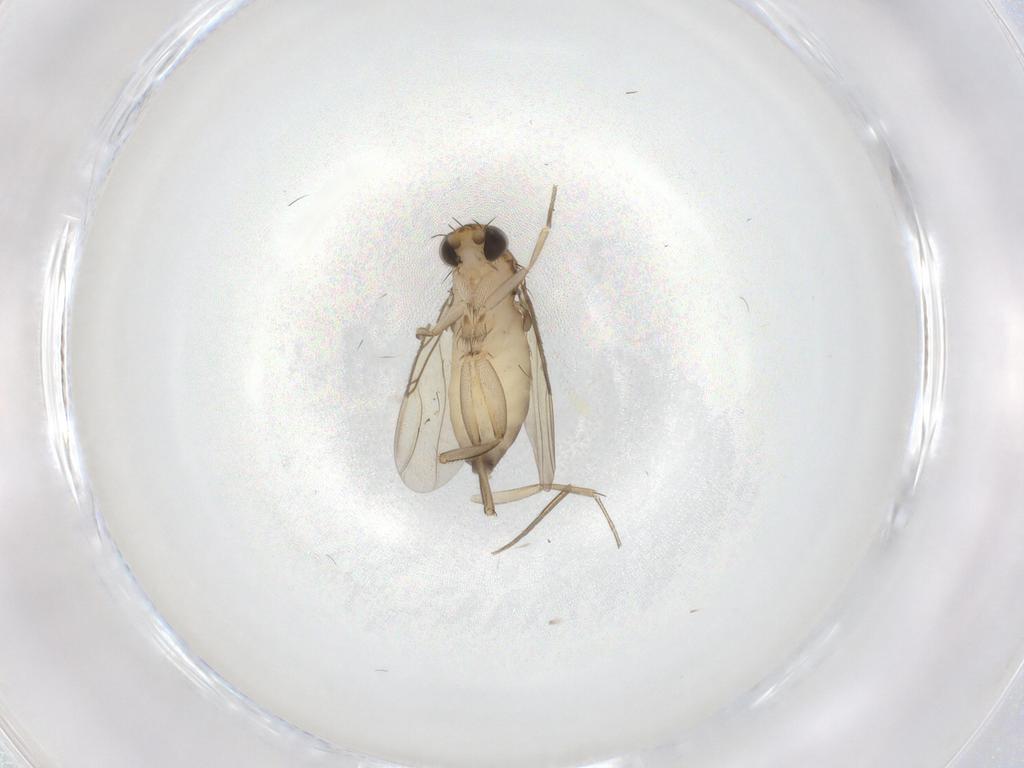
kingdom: Animalia
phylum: Arthropoda
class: Insecta
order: Diptera
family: Phoridae
